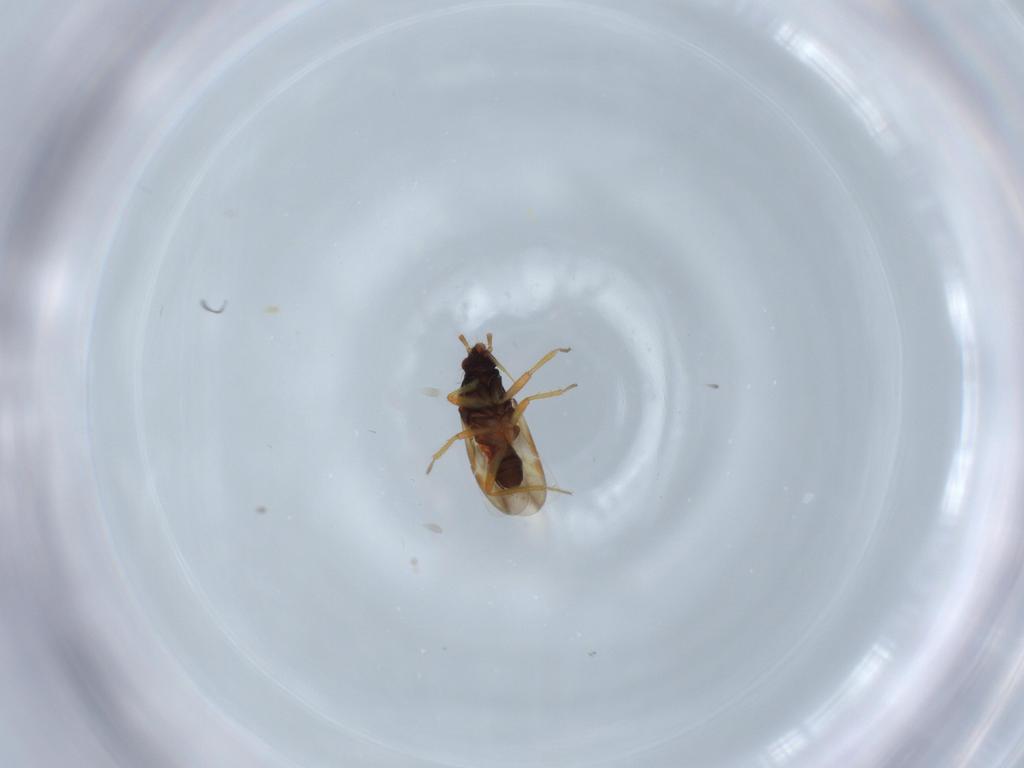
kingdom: Animalia
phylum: Arthropoda
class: Insecta
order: Hemiptera
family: Ceratocombidae
